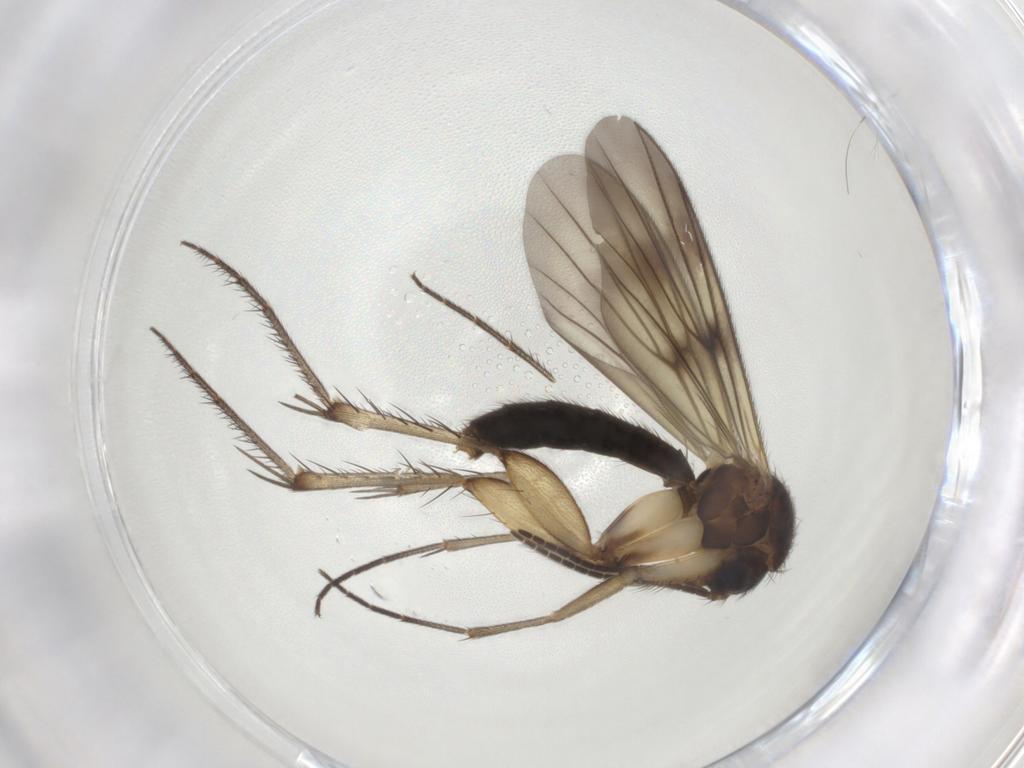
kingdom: Animalia
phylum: Arthropoda
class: Insecta
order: Diptera
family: Mycetophilidae
